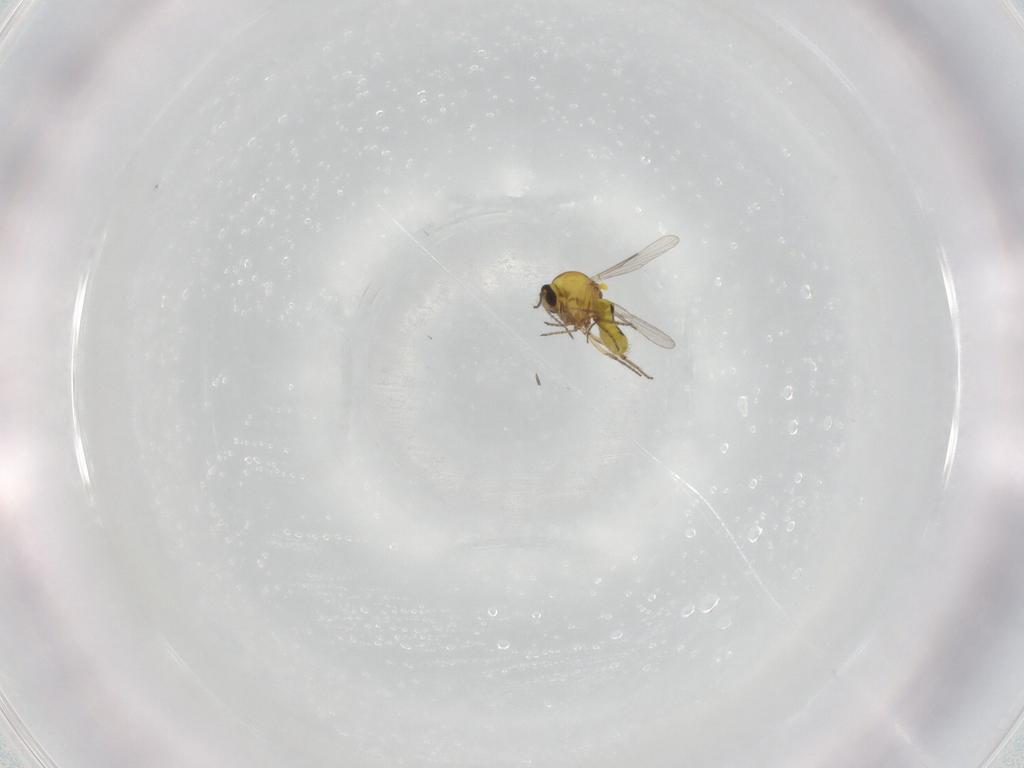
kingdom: Animalia
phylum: Arthropoda
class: Insecta
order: Diptera
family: Ceratopogonidae
